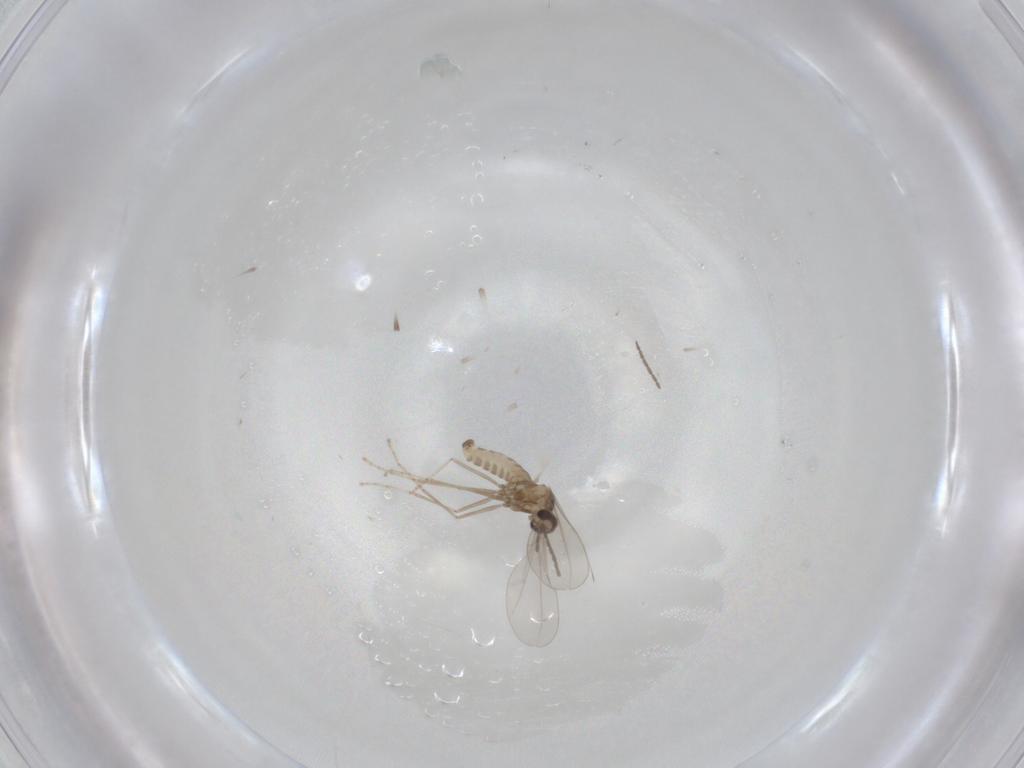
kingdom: Animalia
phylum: Arthropoda
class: Insecta
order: Diptera
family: Cecidomyiidae
